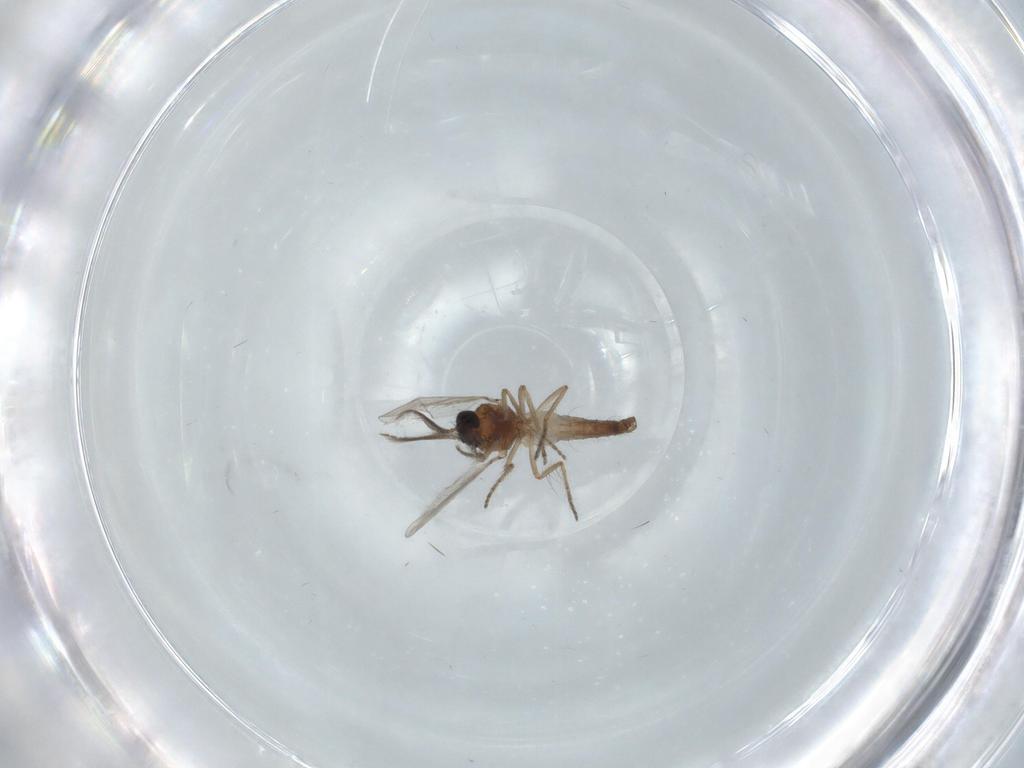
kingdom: Animalia
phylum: Arthropoda
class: Insecta
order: Diptera
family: Ceratopogonidae
